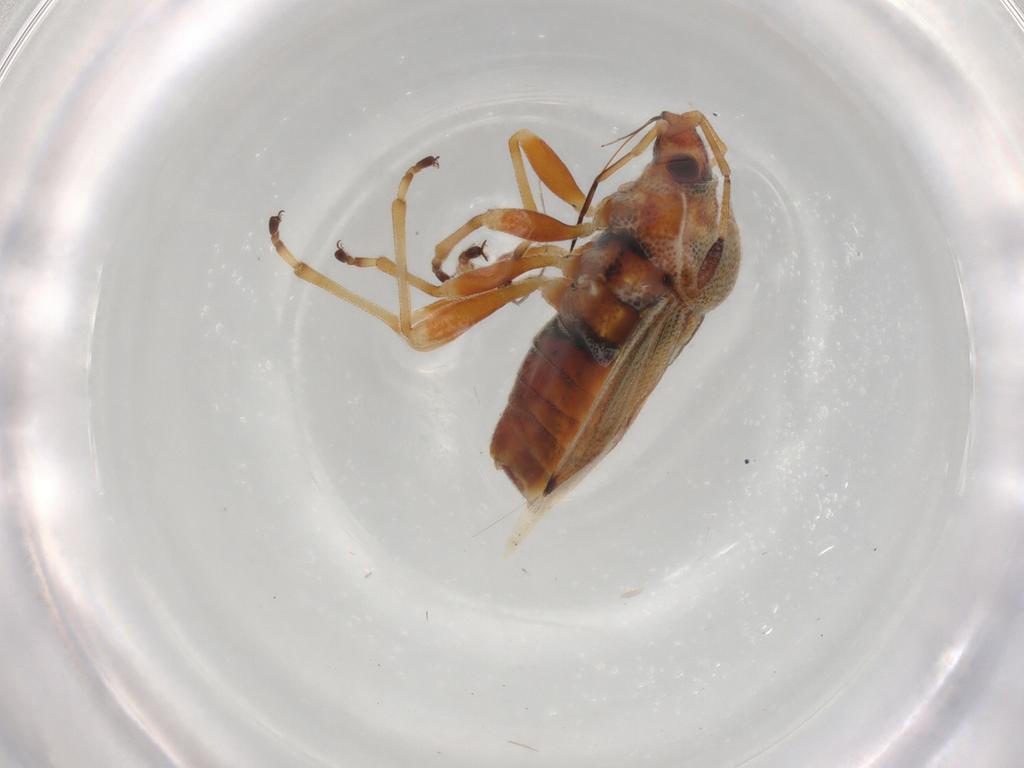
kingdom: Animalia
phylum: Arthropoda
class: Insecta
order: Hemiptera
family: Lygaeidae
